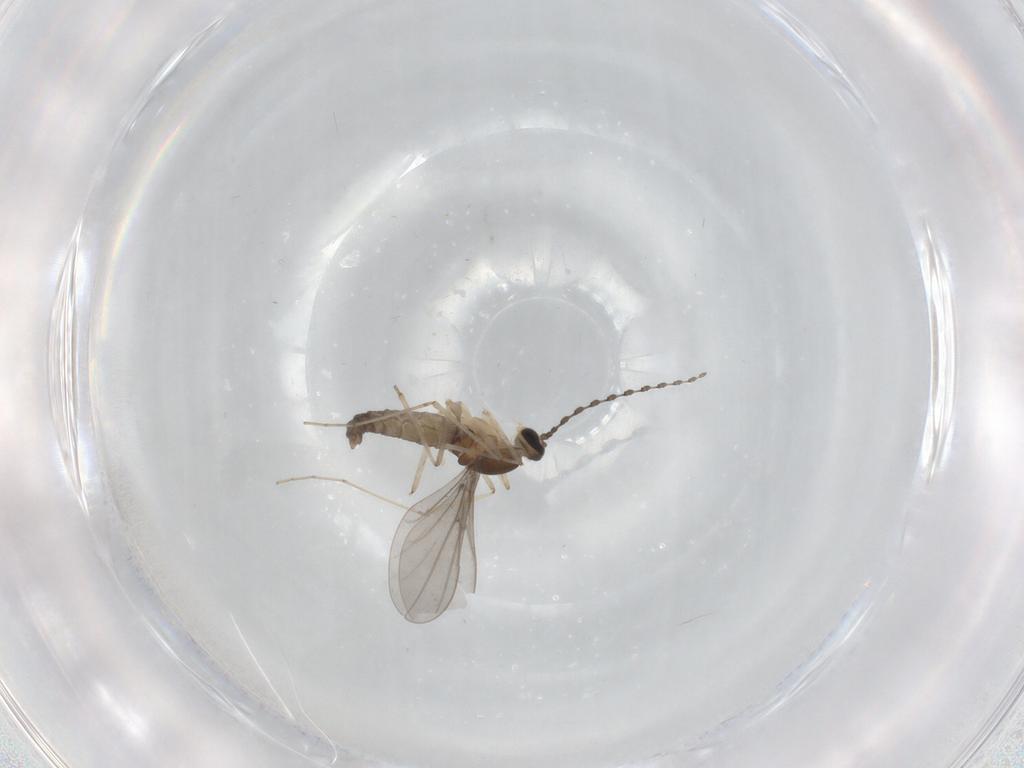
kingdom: Animalia
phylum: Arthropoda
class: Insecta
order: Diptera
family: Cecidomyiidae
